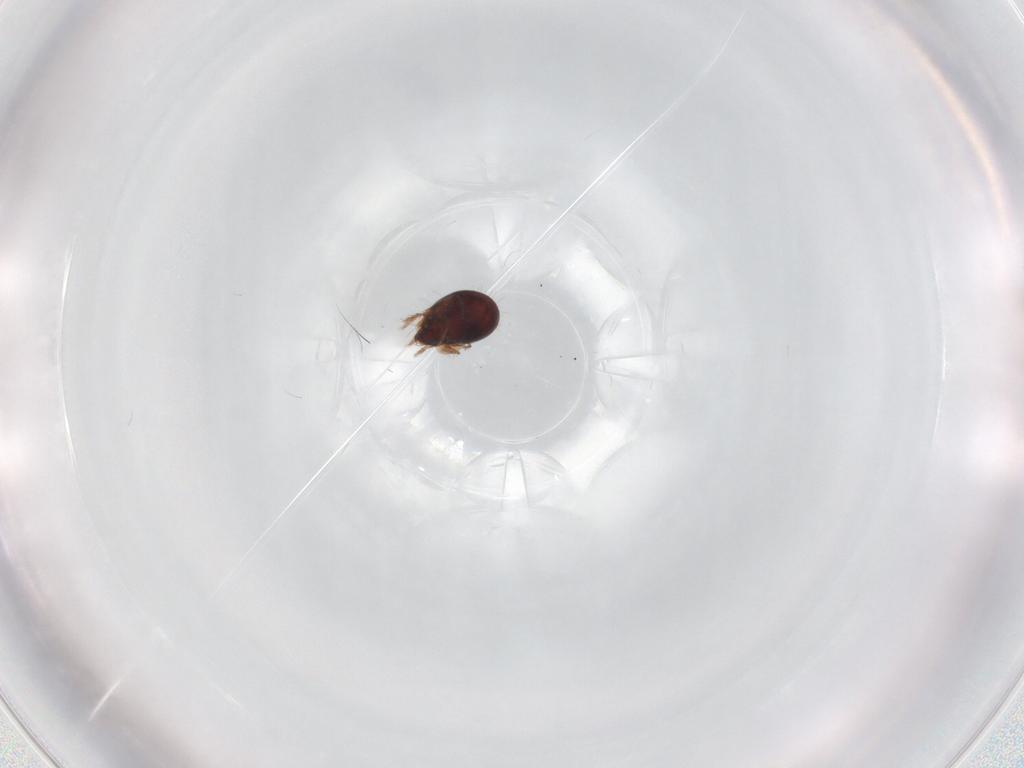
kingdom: Animalia
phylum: Arthropoda
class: Arachnida
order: Sarcoptiformes
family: Humerobatidae
